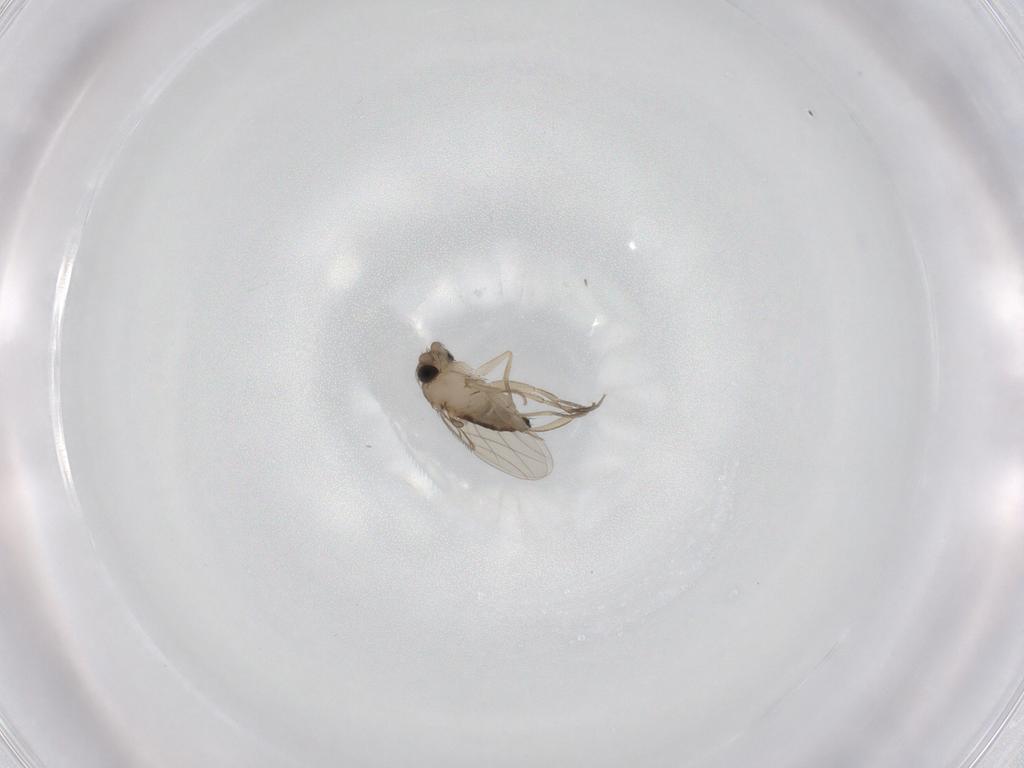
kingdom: Animalia
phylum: Arthropoda
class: Insecta
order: Diptera
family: Phoridae
